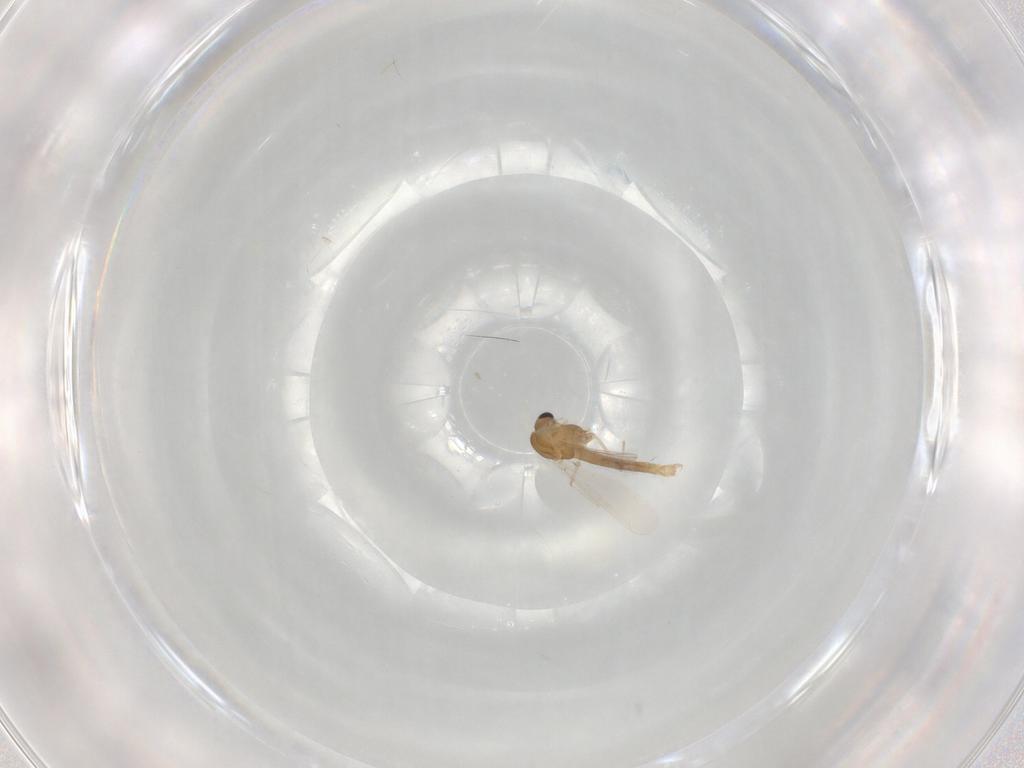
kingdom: Animalia
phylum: Arthropoda
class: Insecta
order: Diptera
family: Chironomidae
